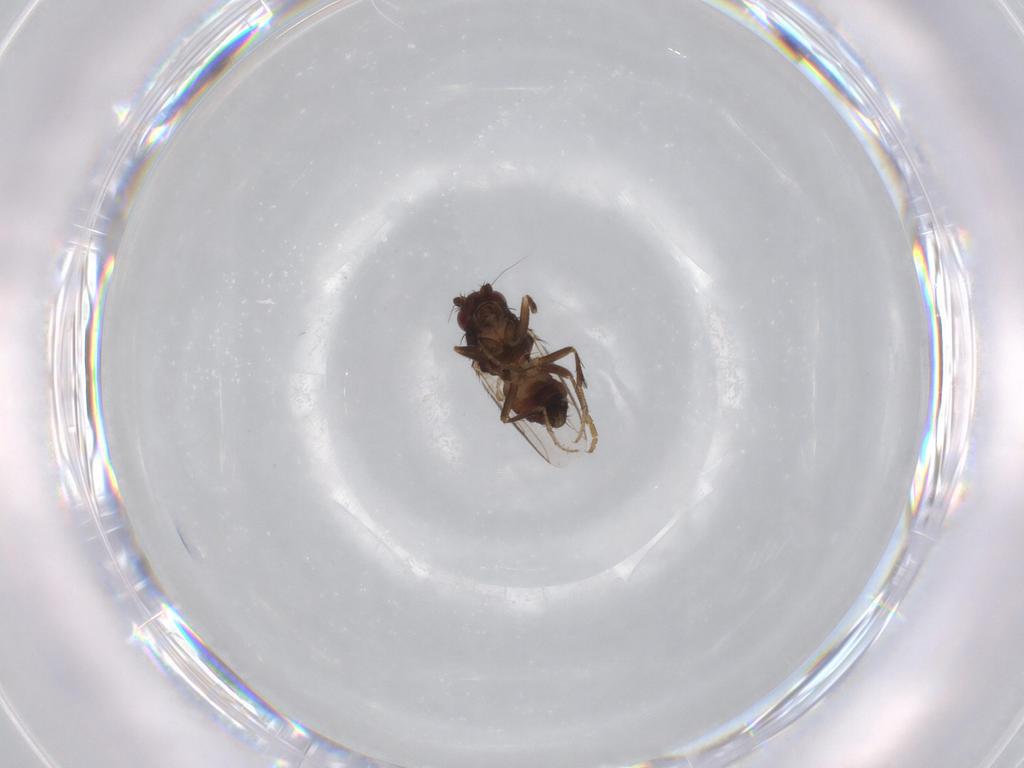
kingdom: Animalia
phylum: Arthropoda
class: Insecta
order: Diptera
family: Sphaeroceridae
